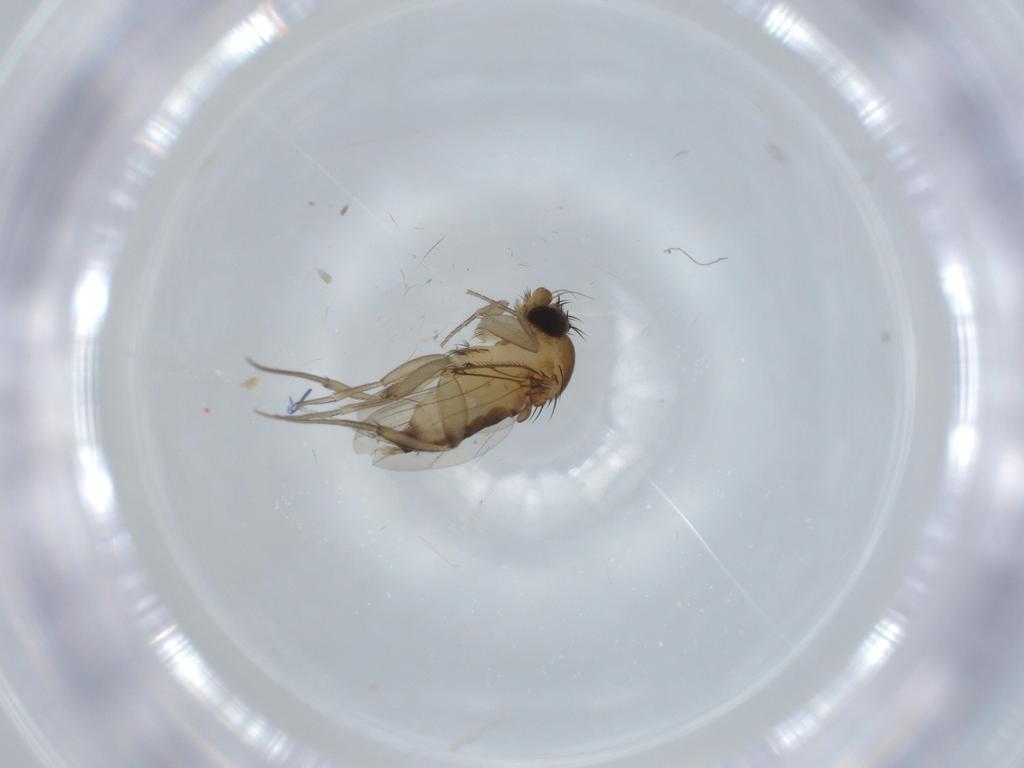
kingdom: Animalia
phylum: Arthropoda
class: Insecta
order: Diptera
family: Phoridae
